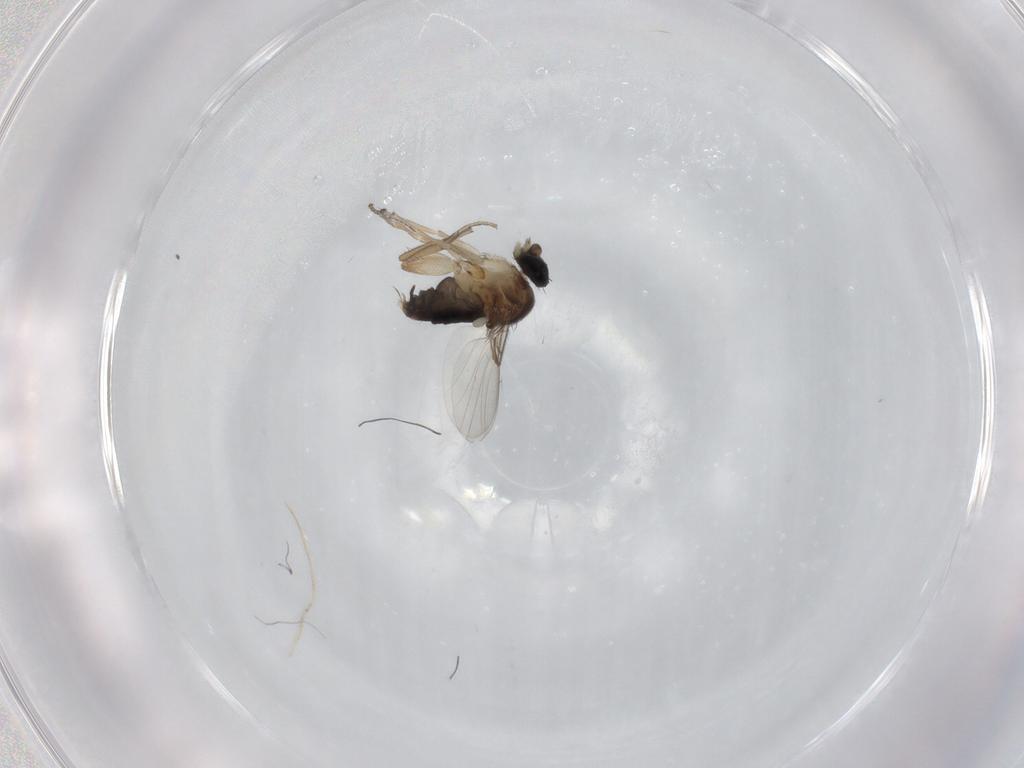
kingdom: Animalia
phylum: Arthropoda
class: Insecta
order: Diptera
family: Phoridae
